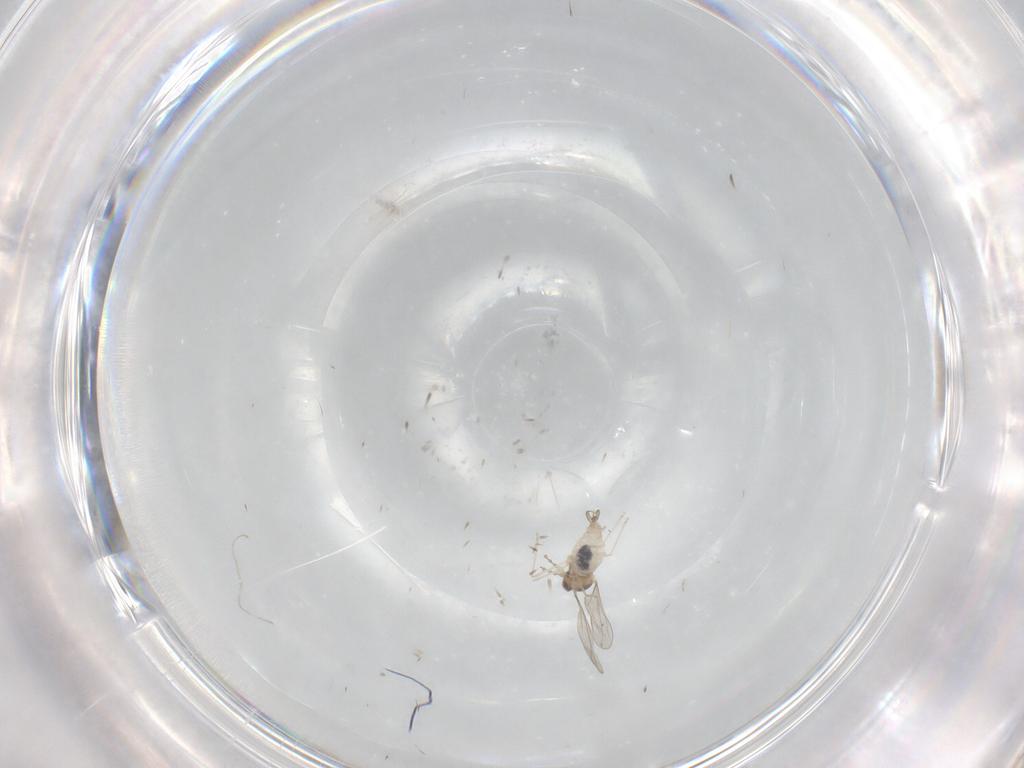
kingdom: Animalia
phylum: Arthropoda
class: Insecta
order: Diptera
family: Cecidomyiidae
